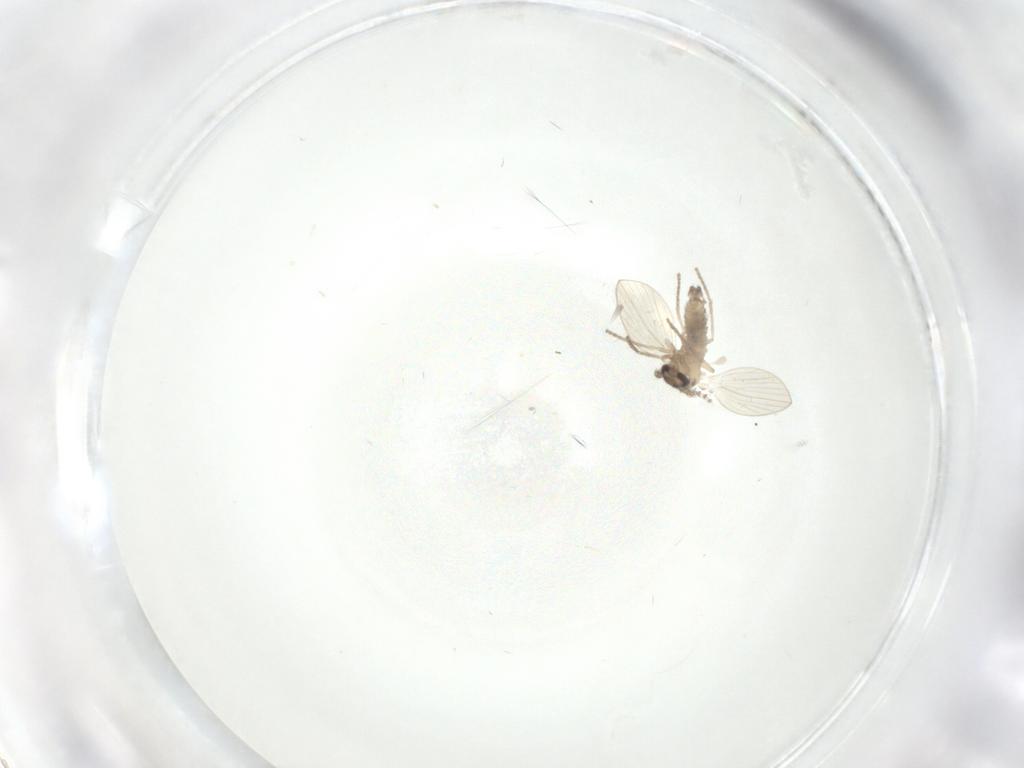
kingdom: Animalia
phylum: Arthropoda
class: Insecta
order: Diptera
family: Psychodidae
